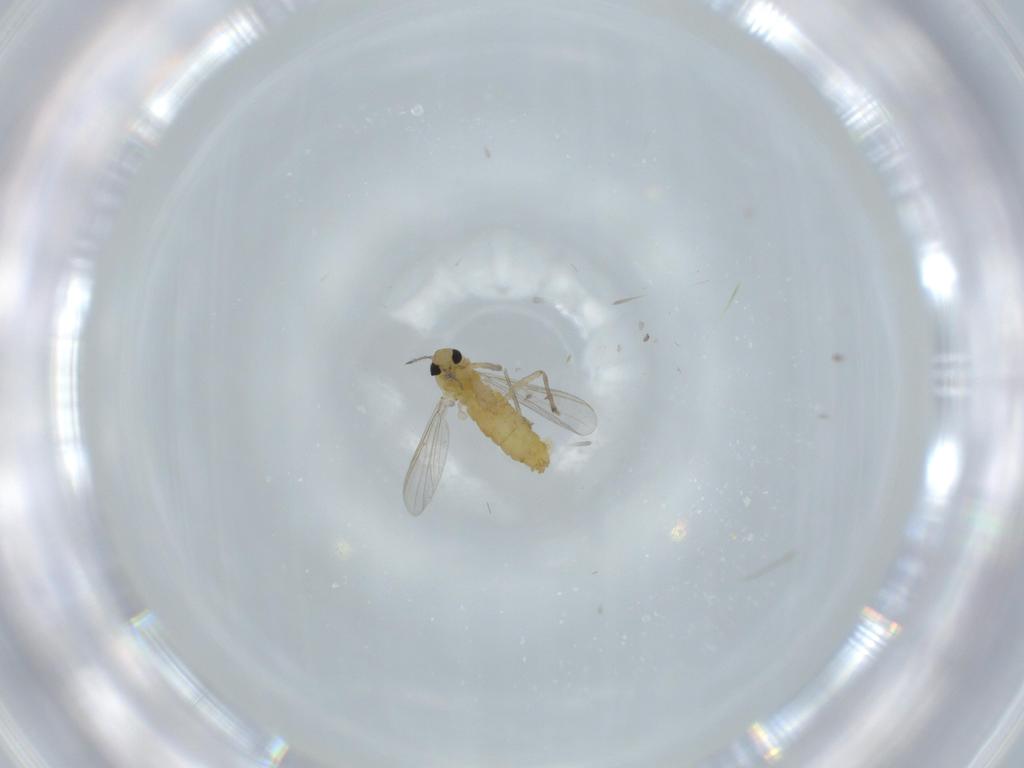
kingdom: Animalia
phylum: Arthropoda
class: Insecta
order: Diptera
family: Chironomidae
